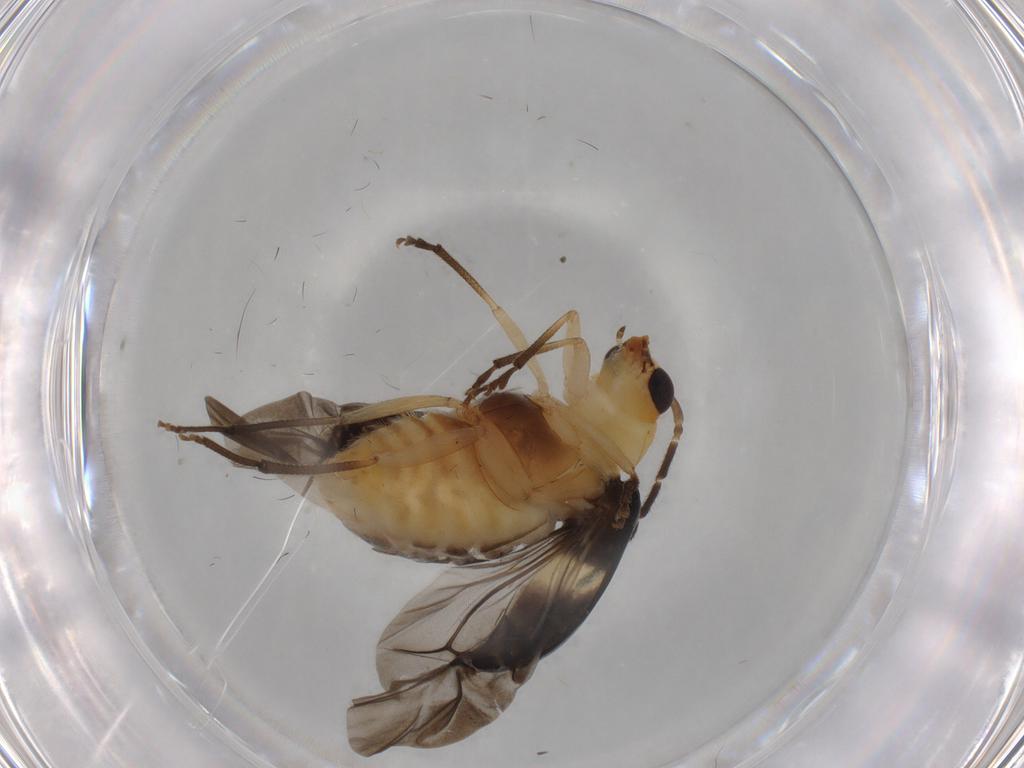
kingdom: Animalia
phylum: Arthropoda
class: Insecta
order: Coleoptera
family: Chrysomelidae
